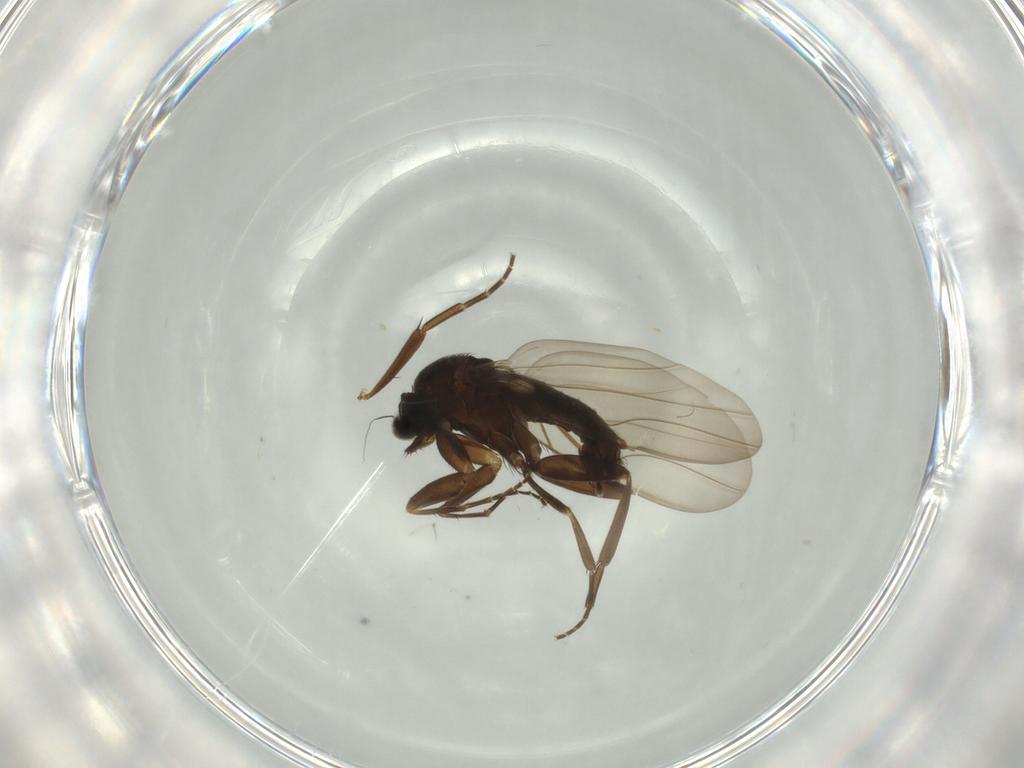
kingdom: Animalia
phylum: Arthropoda
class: Insecta
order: Diptera
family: Phoridae
